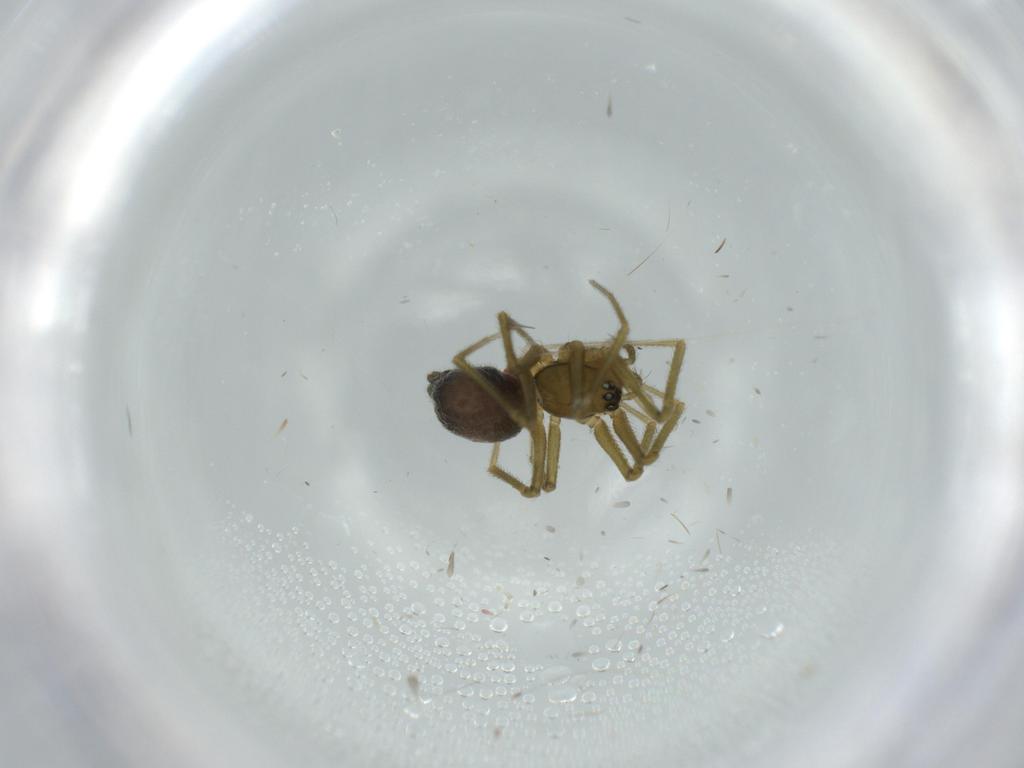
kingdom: Animalia
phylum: Arthropoda
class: Arachnida
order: Araneae
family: Linyphiidae
